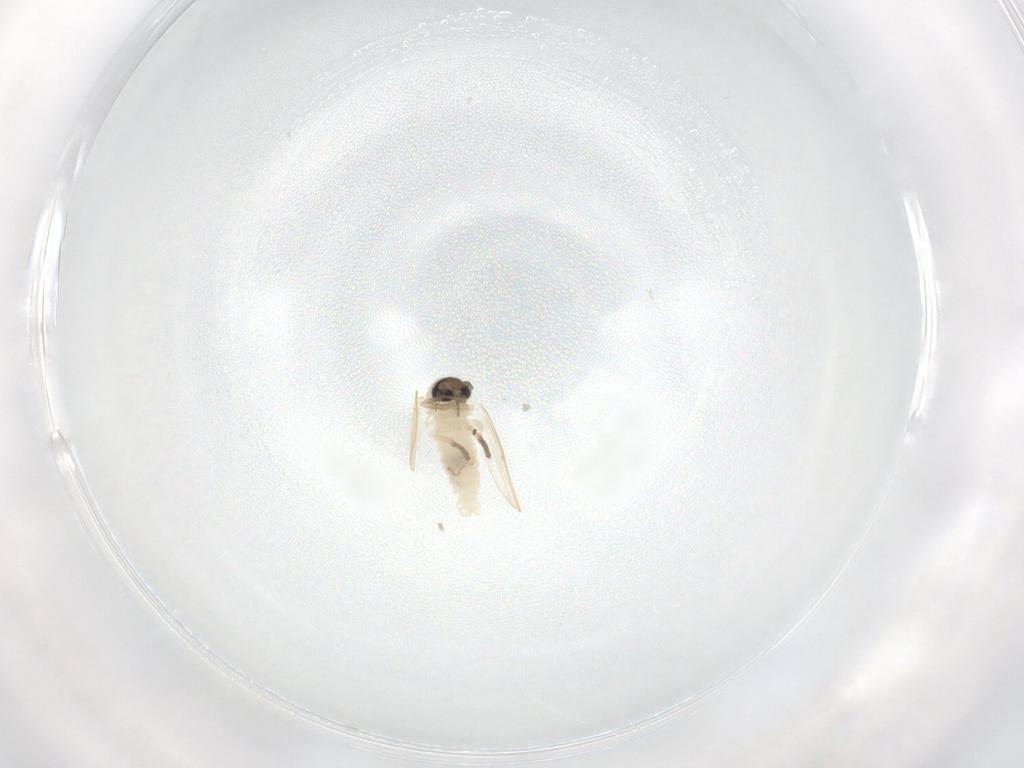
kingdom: Animalia
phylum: Arthropoda
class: Insecta
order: Diptera
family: Psychodidae
